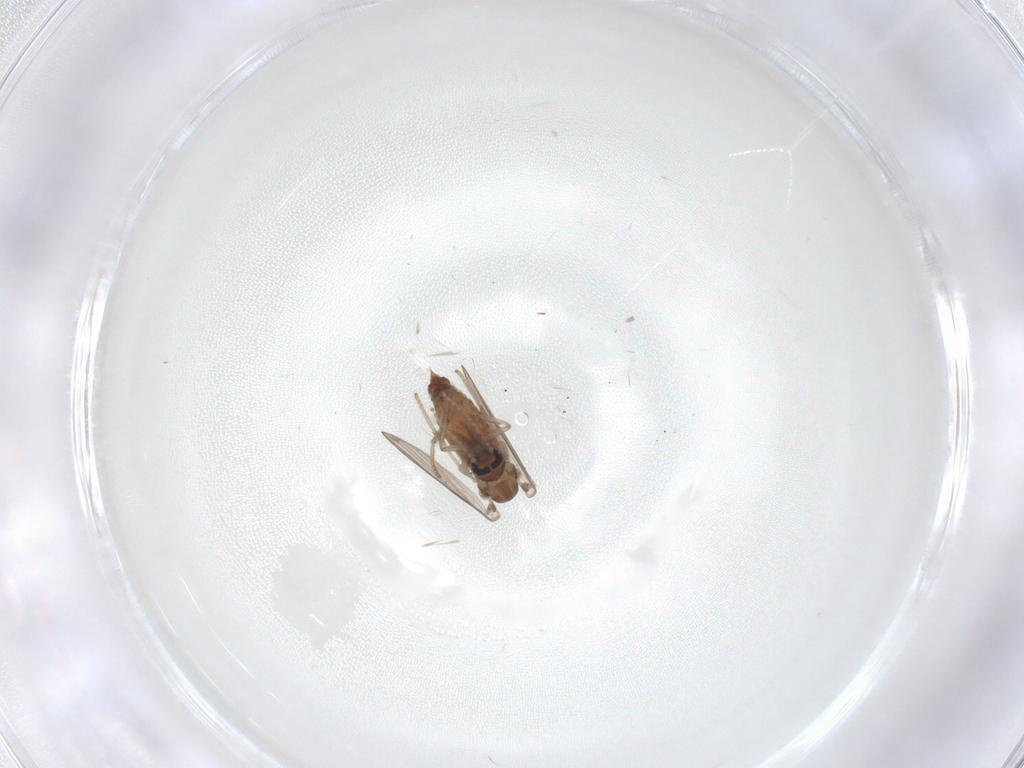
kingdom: Animalia
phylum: Arthropoda
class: Insecta
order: Diptera
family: Psychodidae
